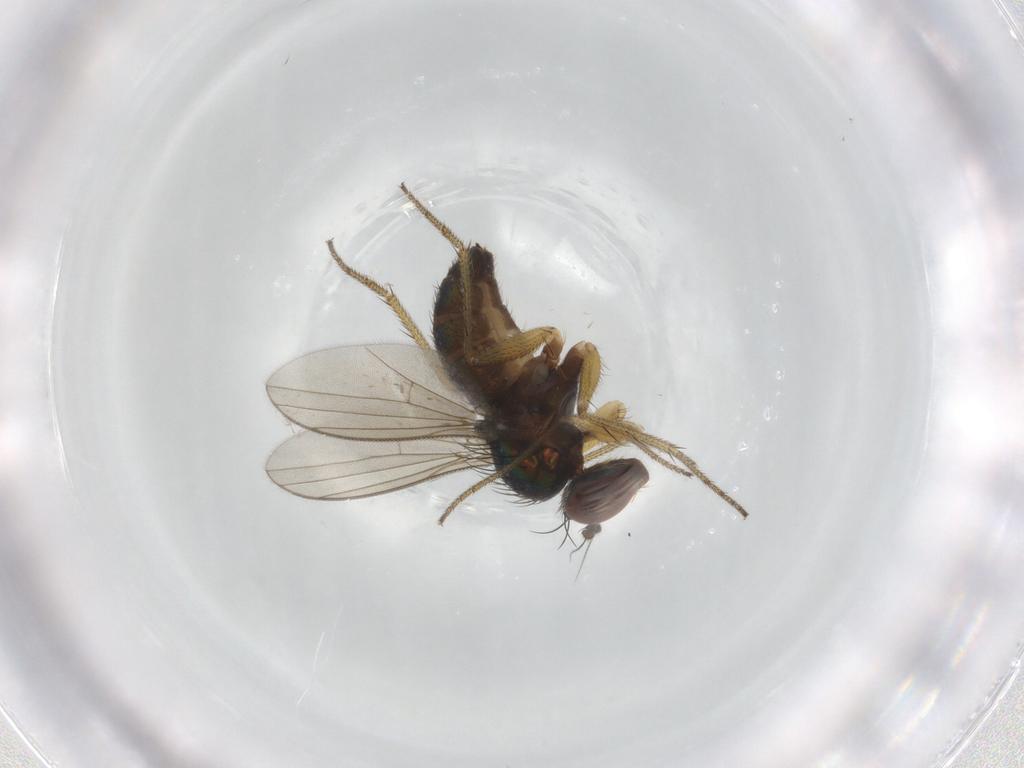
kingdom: Animalia
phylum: Arthropoda
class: Insecta
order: Diptera
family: Dolichopodidae
